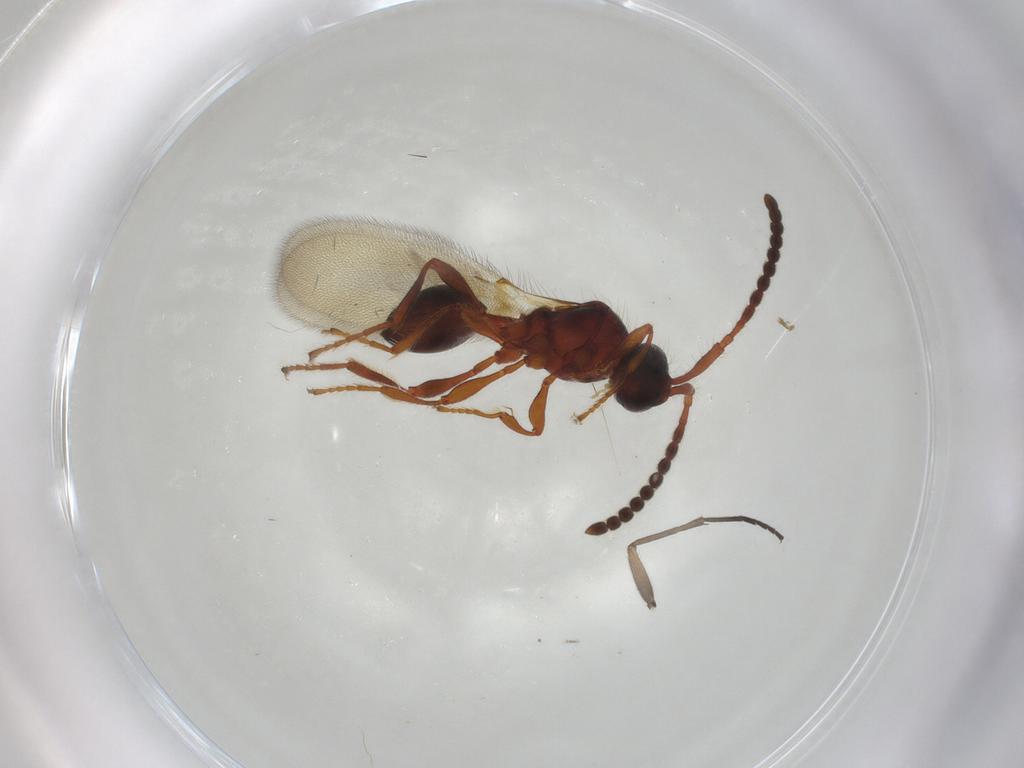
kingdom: Animalia
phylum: Arthropoda
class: Insecta
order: Hymenoptera
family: Diapriidae
